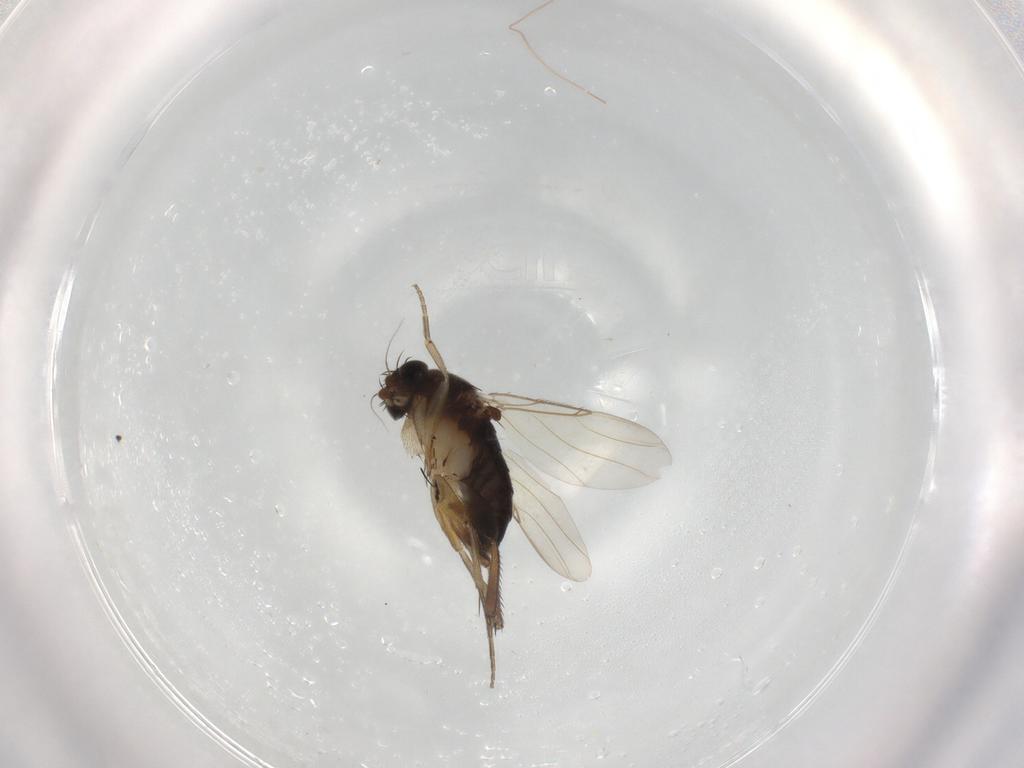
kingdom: Animalia
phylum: Arthropoda
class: Insecta
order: Diptera
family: Phoridae
